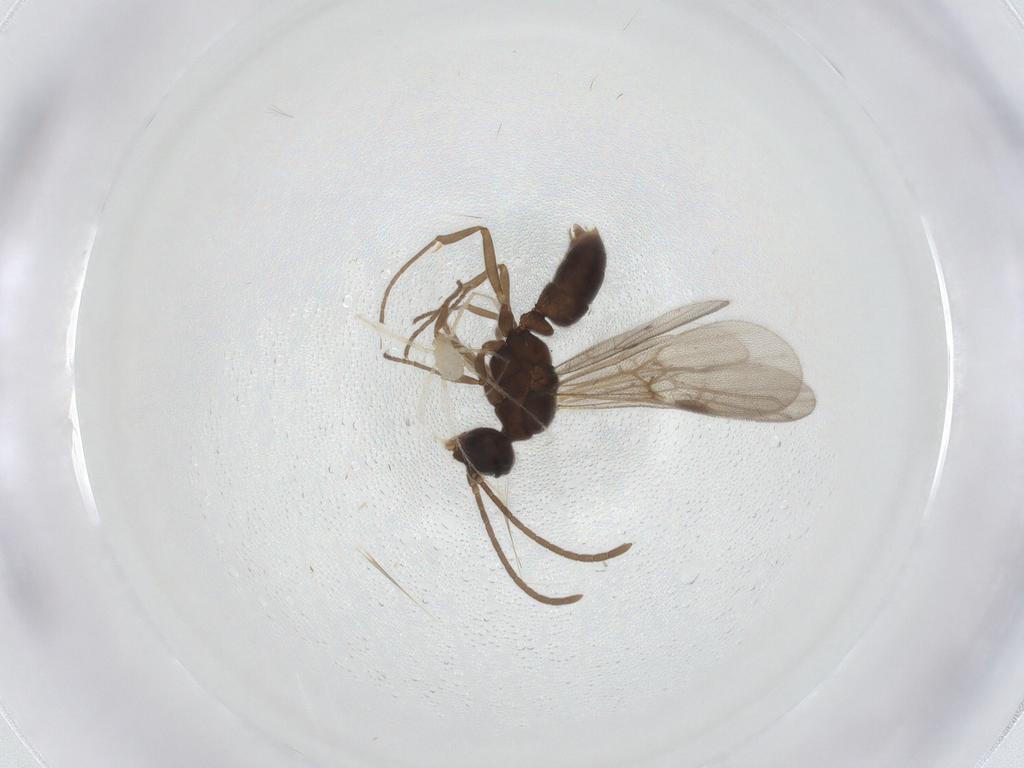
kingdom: Animalia
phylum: Arthropoda
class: Insecta
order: Hymenoptera
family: Formicidae
